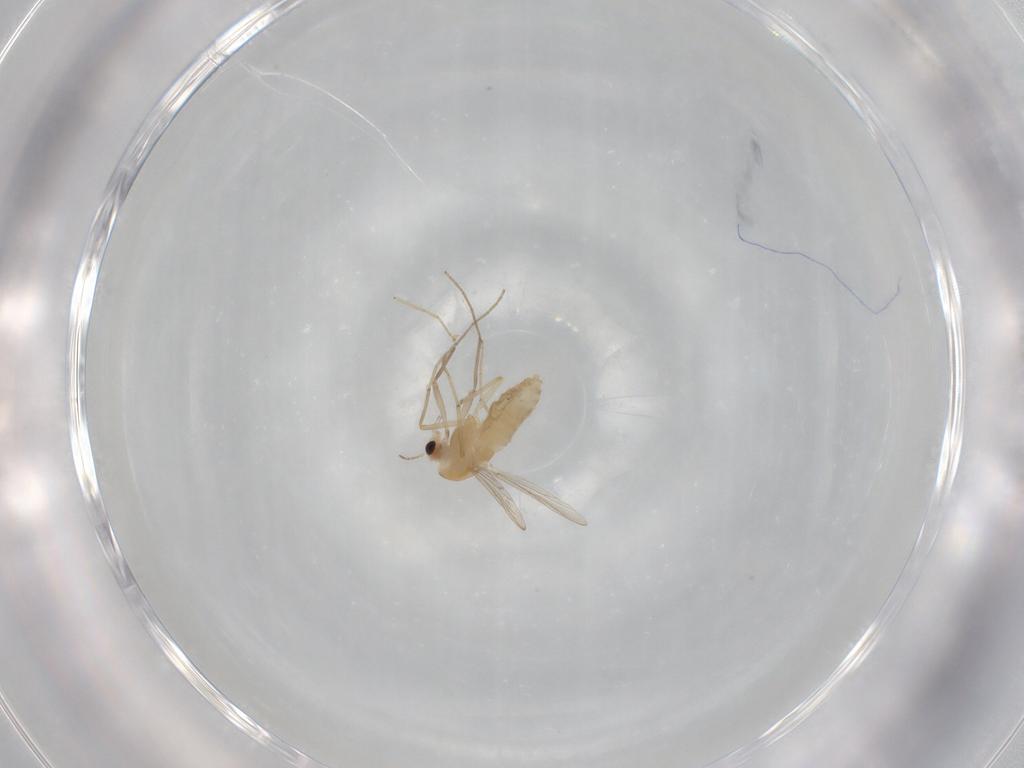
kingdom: Animalia
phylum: Arthropoda
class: Insecta
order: Diptera
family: Chironomidae
